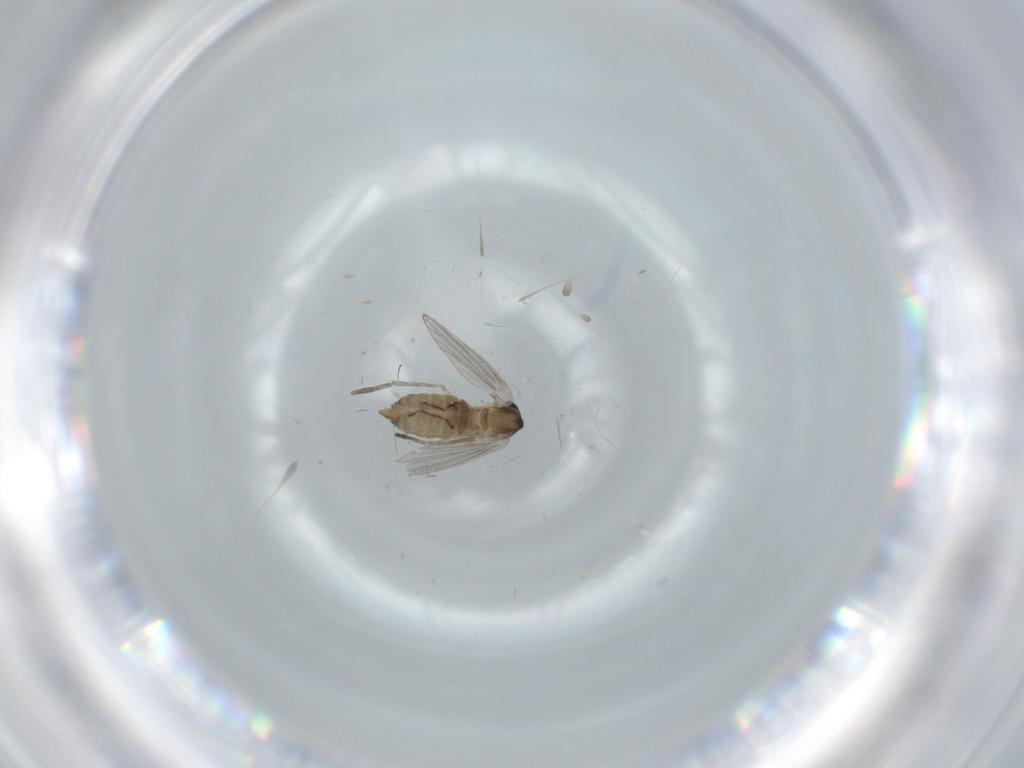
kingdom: Animalia
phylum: Arthropoda
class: Insecta
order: Diptera
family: Psychodidae
